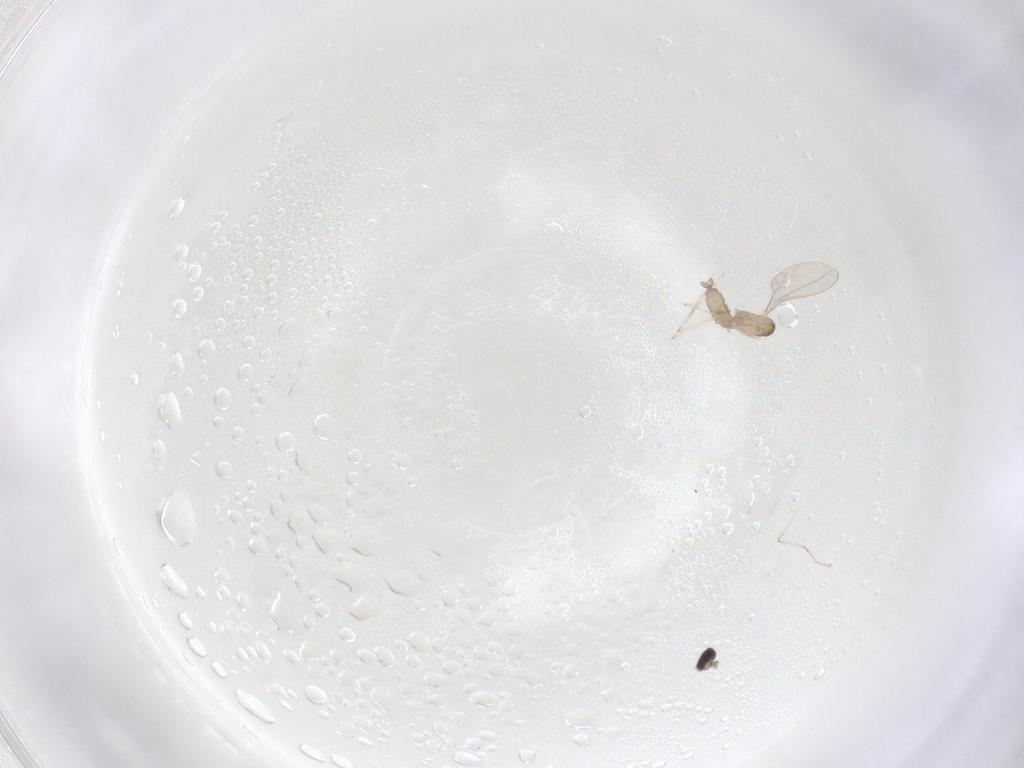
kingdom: Animalia
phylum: Arthropoda
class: Insecta
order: Diptera
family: Cecidomyiidae
